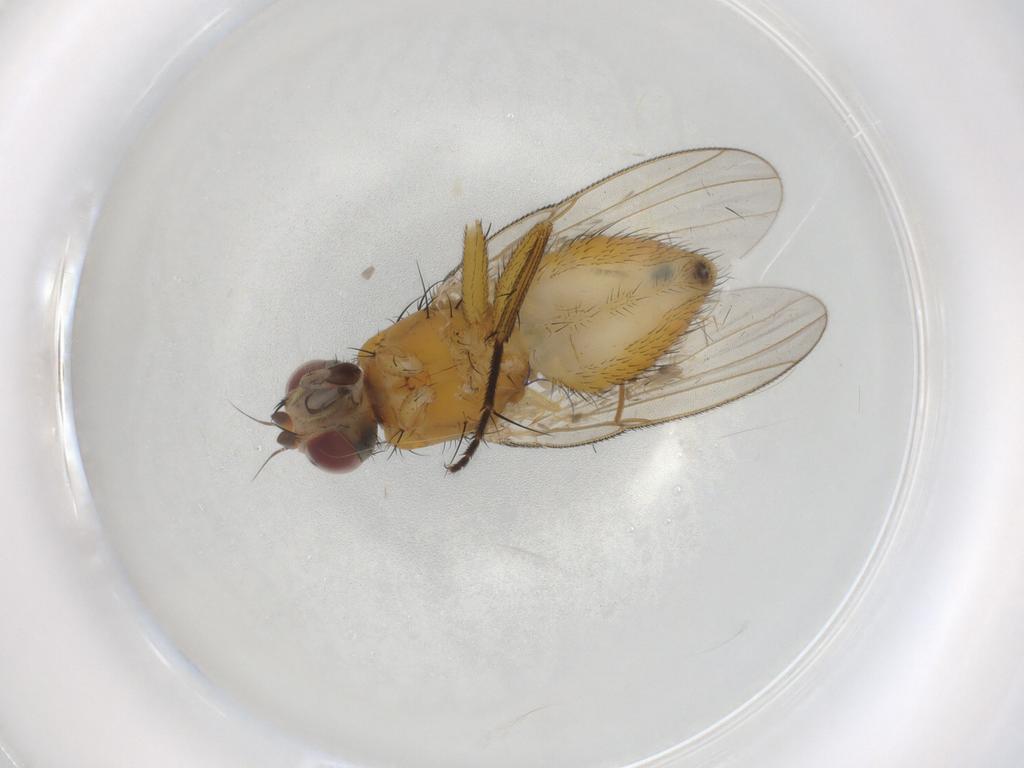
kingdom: Animalia
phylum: Arthropoda
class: Insecta
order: Diptera
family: Muscidae
